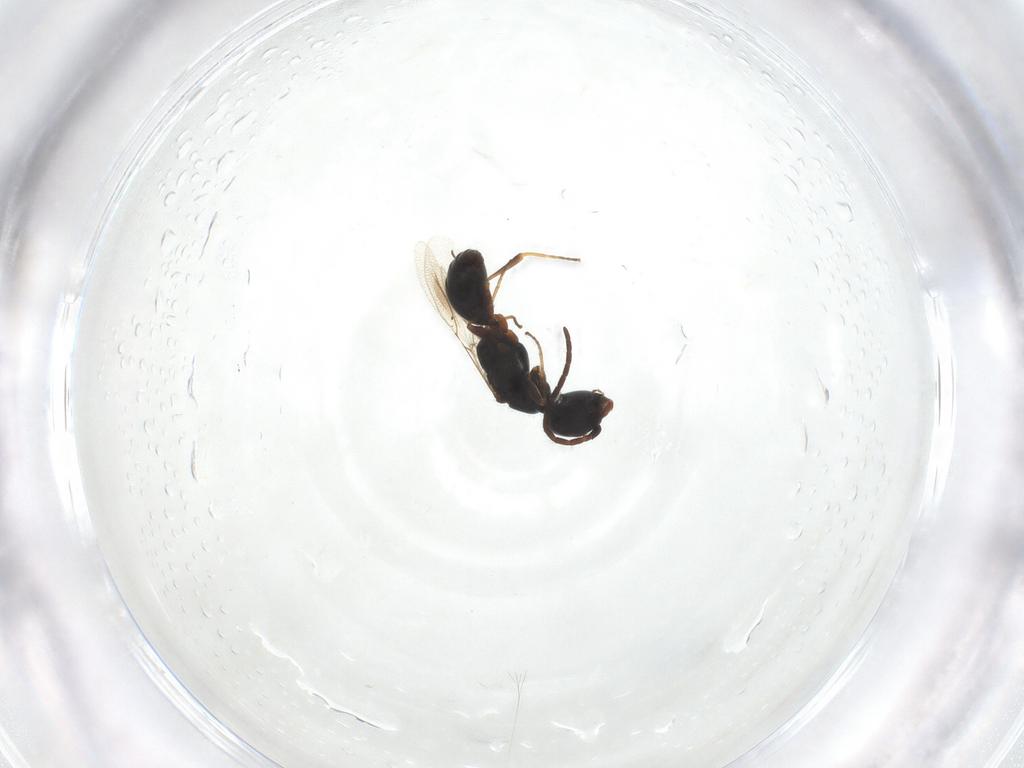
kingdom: Animalia
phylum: Arthropoda
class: Insecta
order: Hymenoptera
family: Bethylidae
